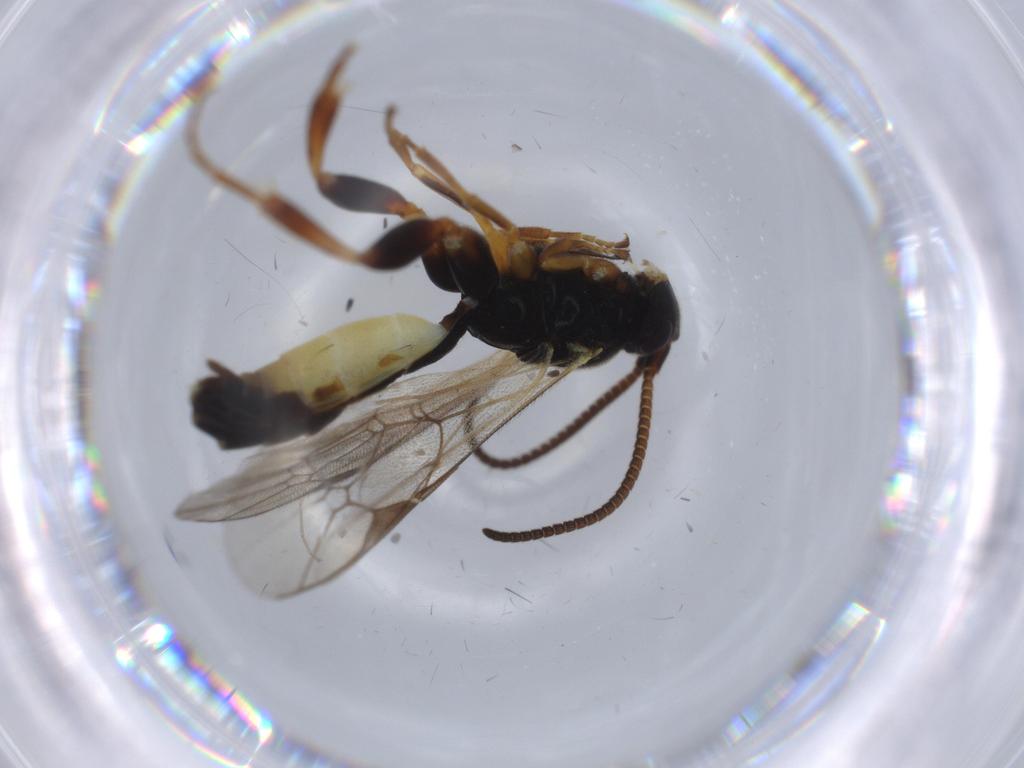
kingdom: Animalia
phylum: Arthropoda
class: Insecta
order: Hymenoptera
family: Ichneumonidae
